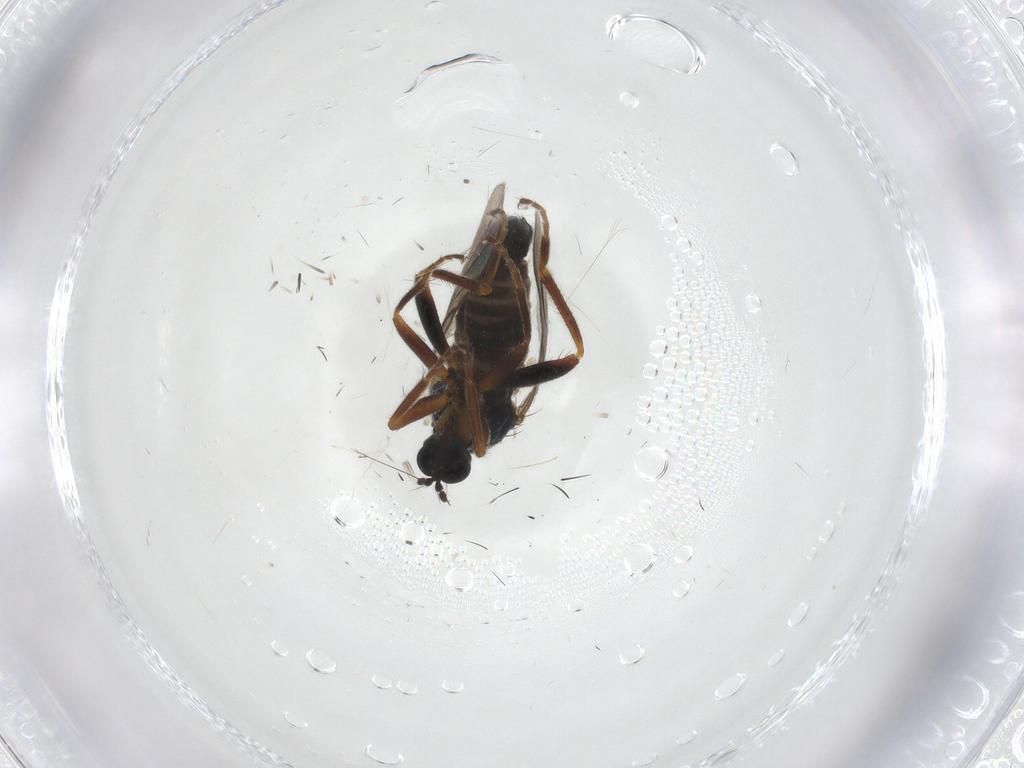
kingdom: Animalia
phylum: Arthropoda
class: Insecta
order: Diptera
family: Hybotidae
